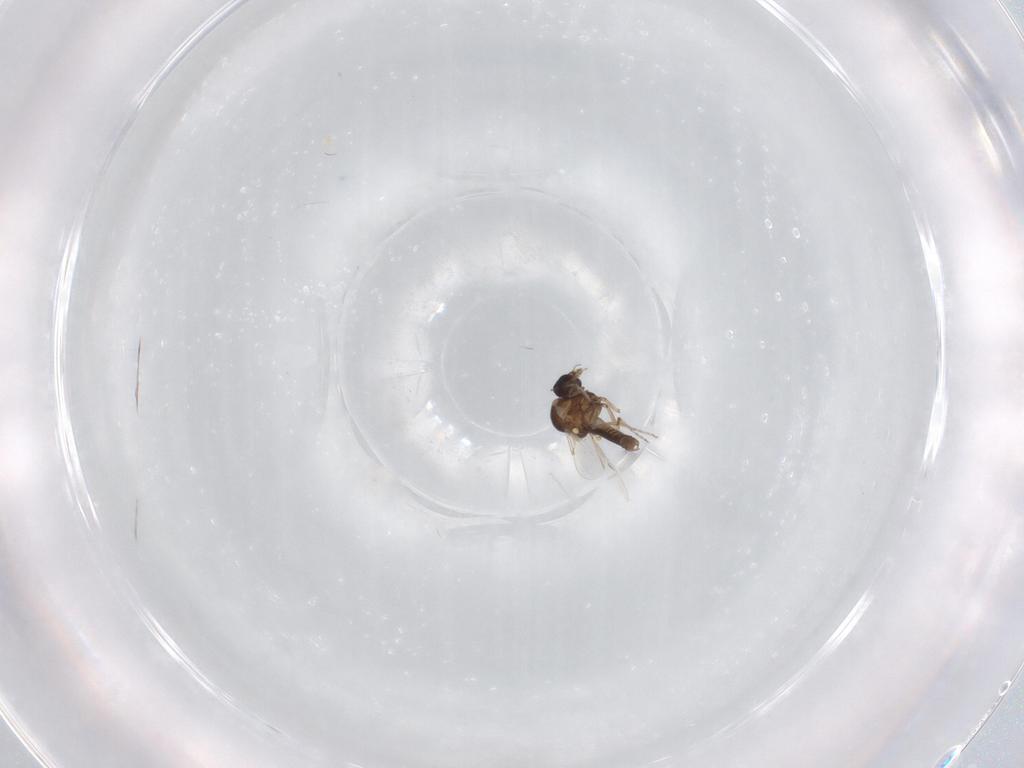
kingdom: Animalia
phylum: Arthropoda
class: Insecta
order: Diptera
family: Ceratopogonidae
